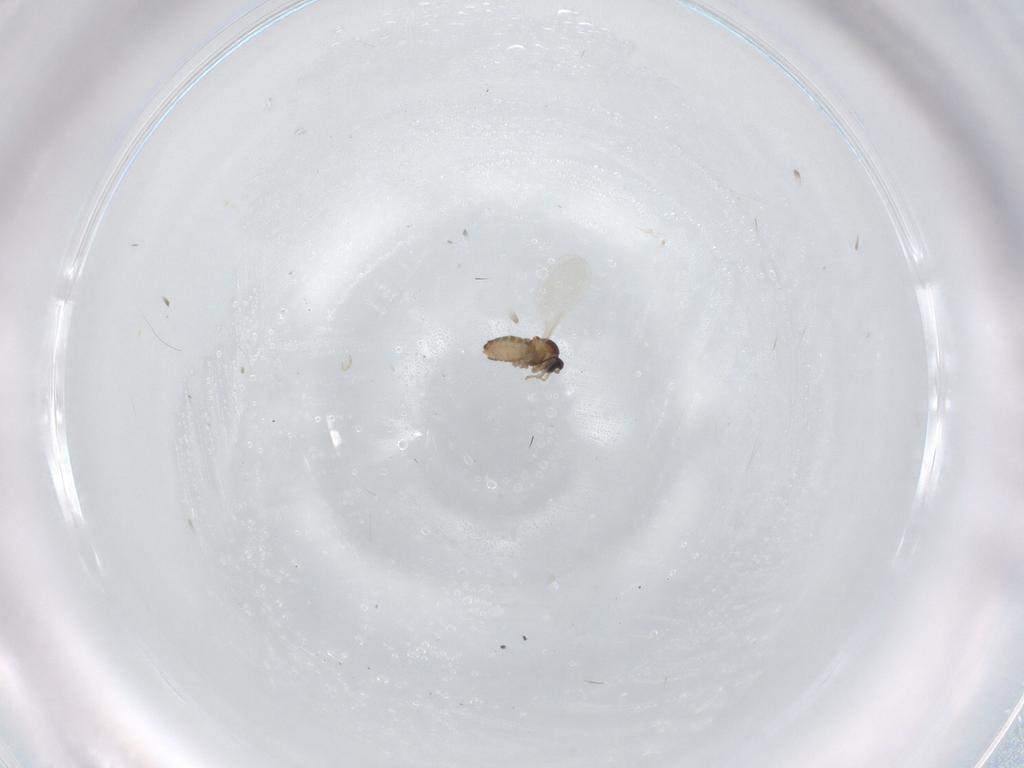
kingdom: Animalia
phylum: Arthropoda
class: Insecta
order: Diptera
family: Cecidomyiidae
